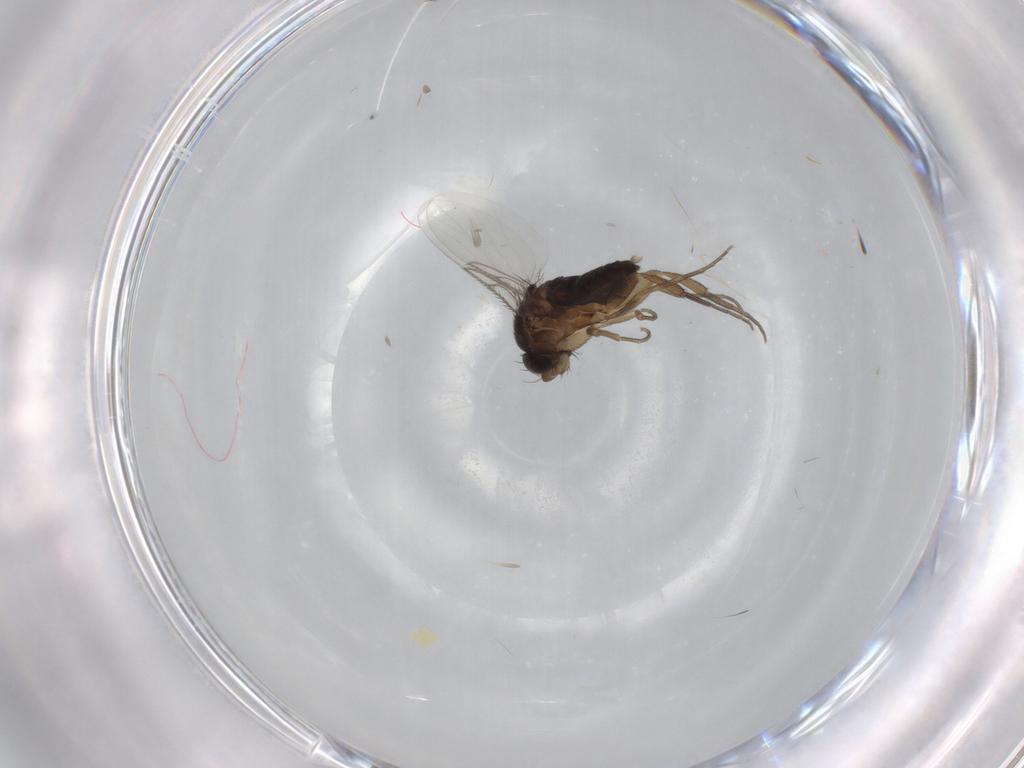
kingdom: Animalia
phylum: Arthropoda
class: Insecta
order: Diptera
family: Phoridae
